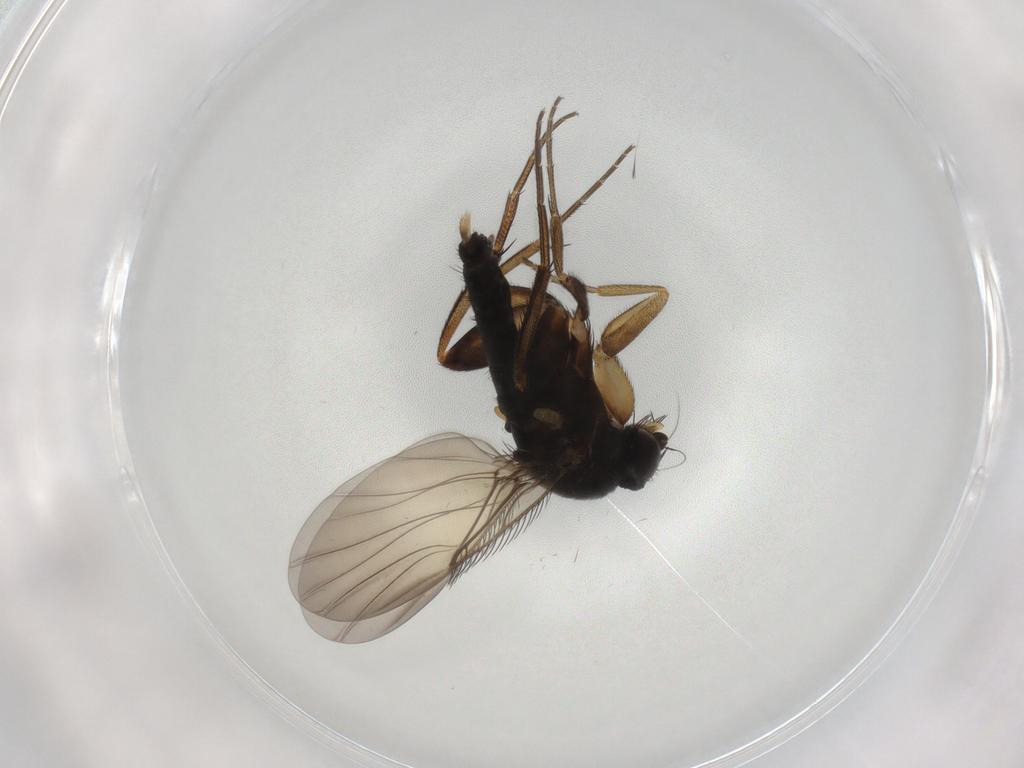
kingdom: Animalia
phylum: Arthropoda
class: Insecta
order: Diptera
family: Phoridae
